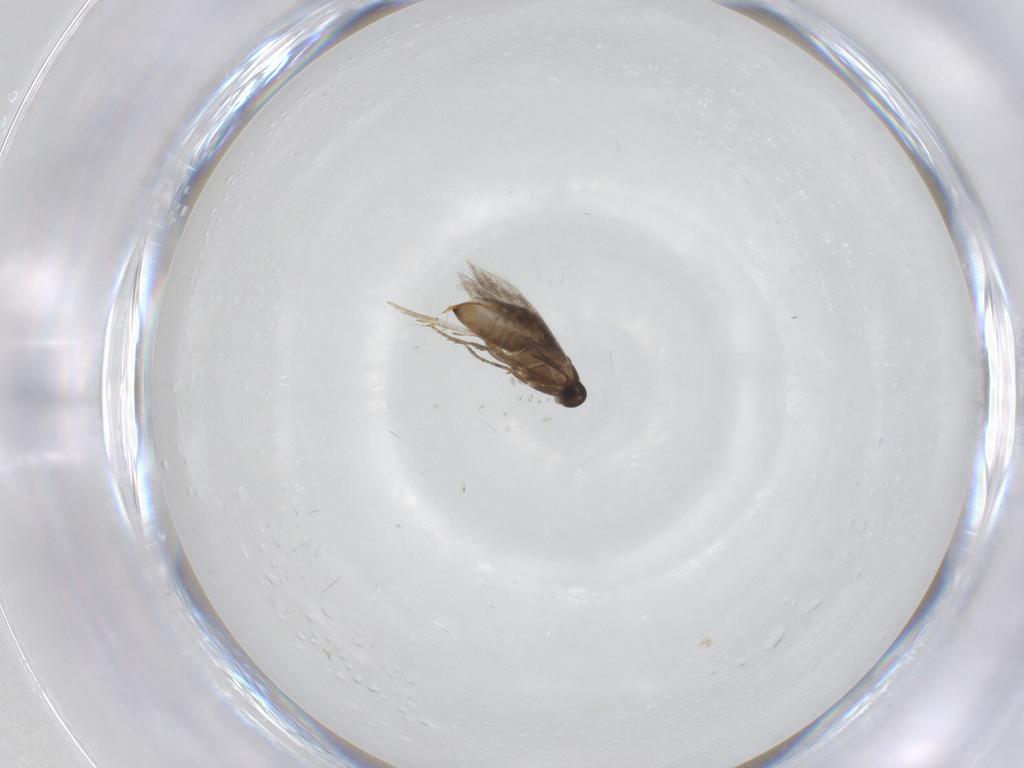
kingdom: Animalia
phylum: Arthropoda
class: Insecta
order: Lepidoptera
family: Heliozelidae
